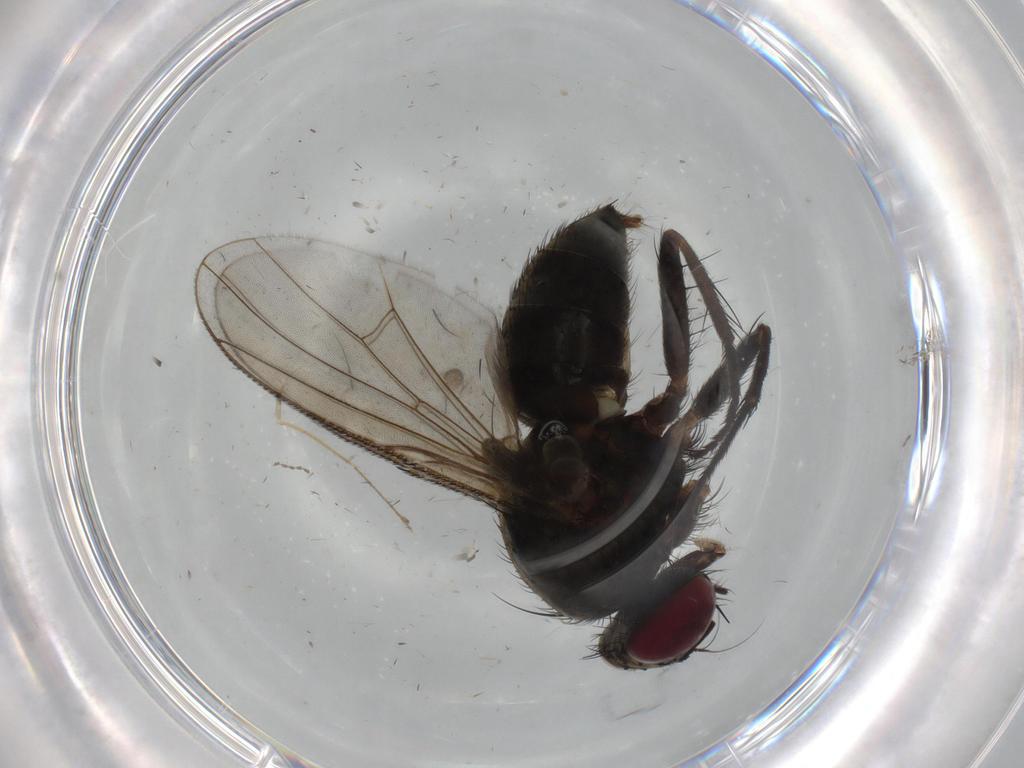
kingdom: Animalia
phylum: Arthropoda
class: Insecta
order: Diptera
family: Muscidae
